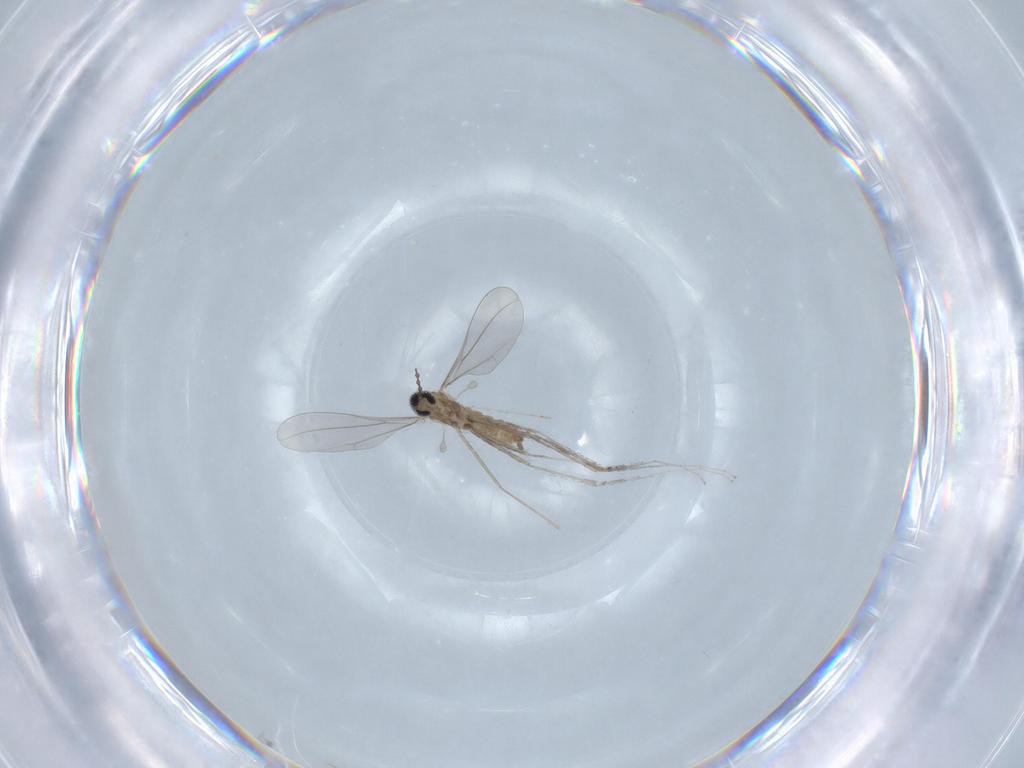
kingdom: Animalia
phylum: Arthropoda
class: Insecta
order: Diptera
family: Cecidomyiidae
